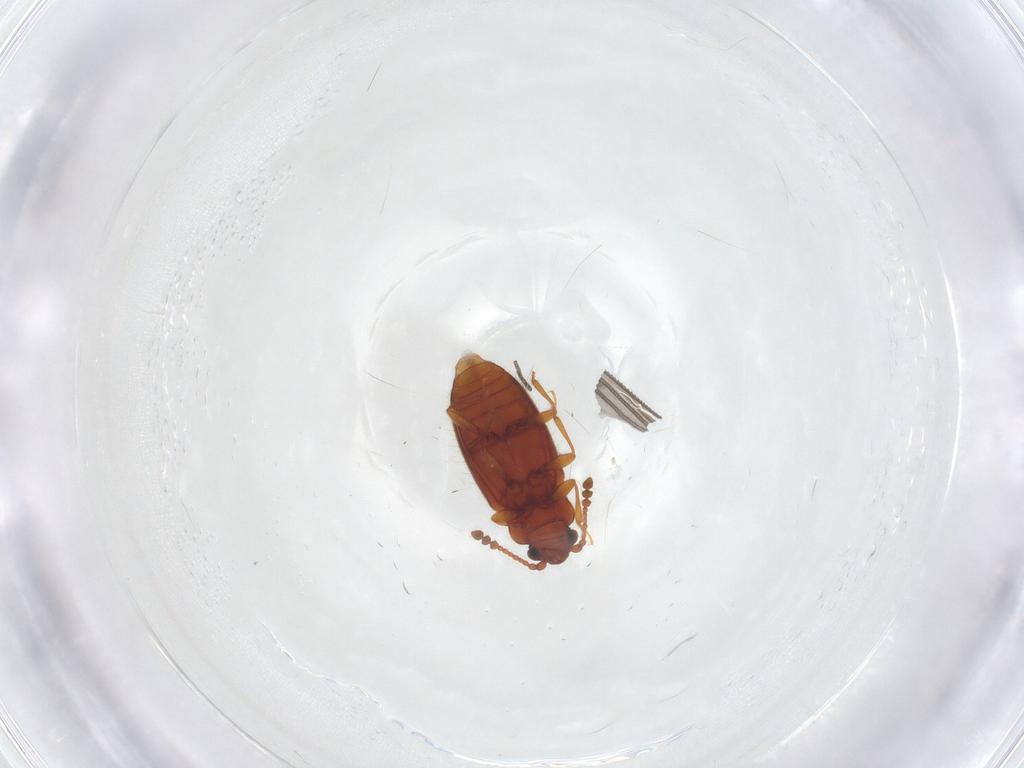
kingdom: Animalia
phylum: Arthropoda
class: Insecta
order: Coleoptera
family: Cryptophagidae
